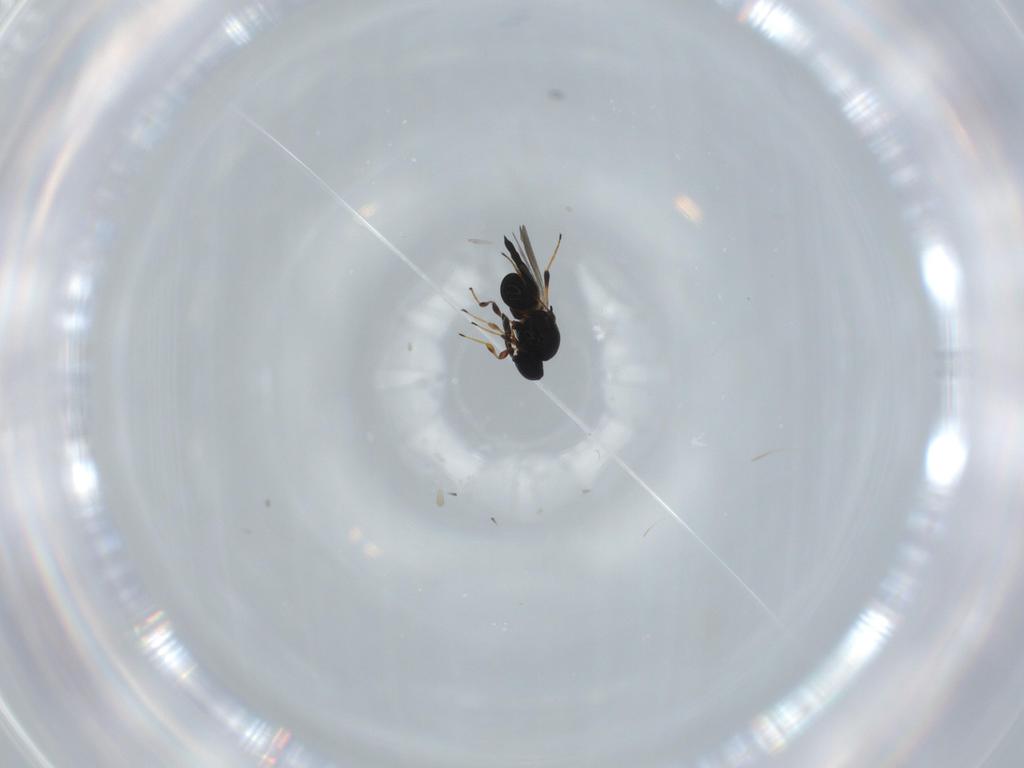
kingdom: Animalia
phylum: Arthropoda
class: Insecta
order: Hymenoptera
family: Platygastridae
